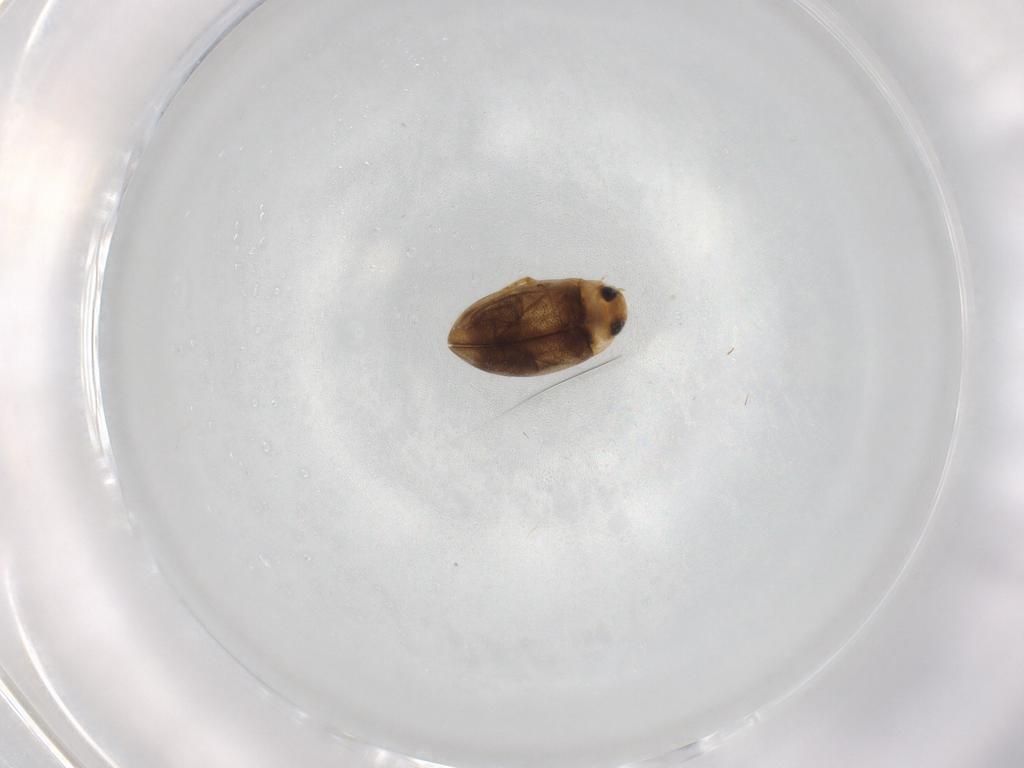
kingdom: Animalia
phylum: Arthropoda
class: Insecta
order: Coleoptera
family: Dytiscidae
